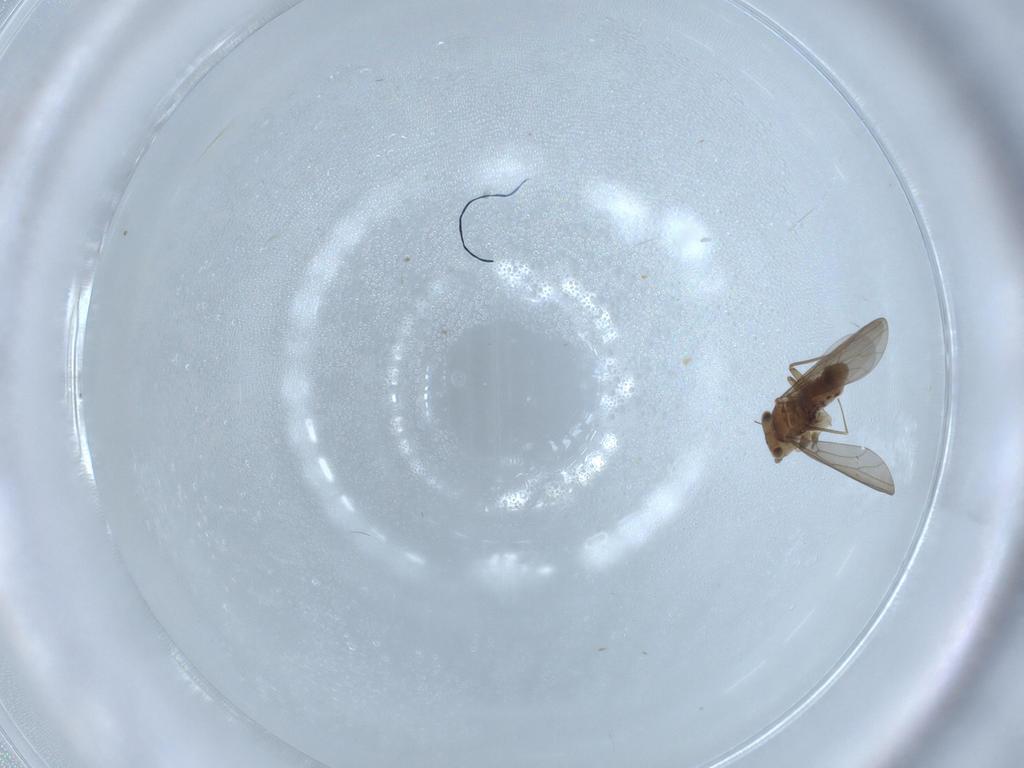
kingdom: Animalia
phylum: Arthropoda
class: Insecta
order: Psocodea
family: Lepidopsocidae
